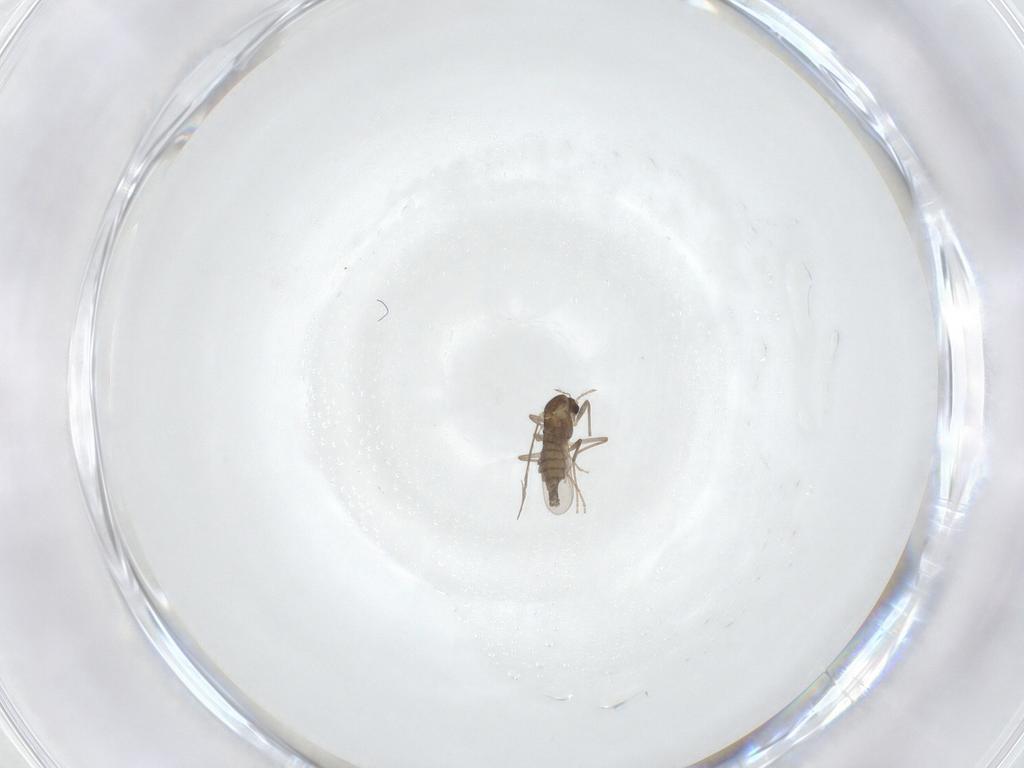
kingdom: Animalia
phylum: Arthropoda
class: Insecta
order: Diptera
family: Chironomidae
